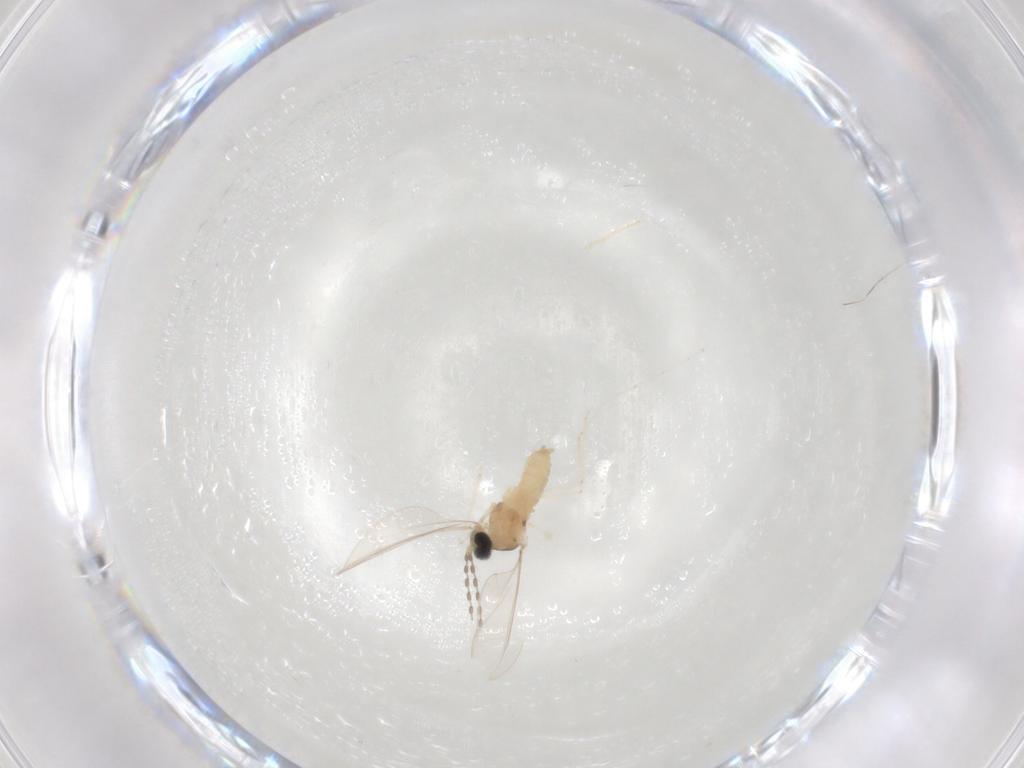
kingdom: Animalia
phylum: Arthropoda
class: Insecta
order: Diptera
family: Cecidomyiidae
